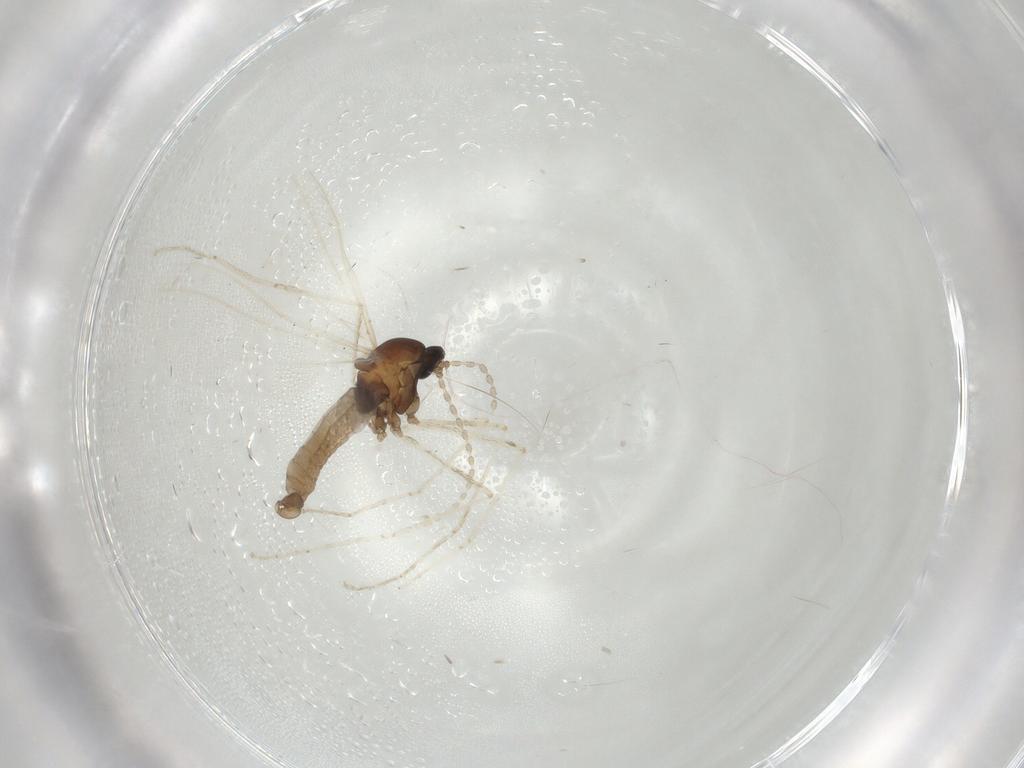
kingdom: Animalia
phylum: Arthropoda
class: Insecta
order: Diptera
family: Cecidomyiidae
